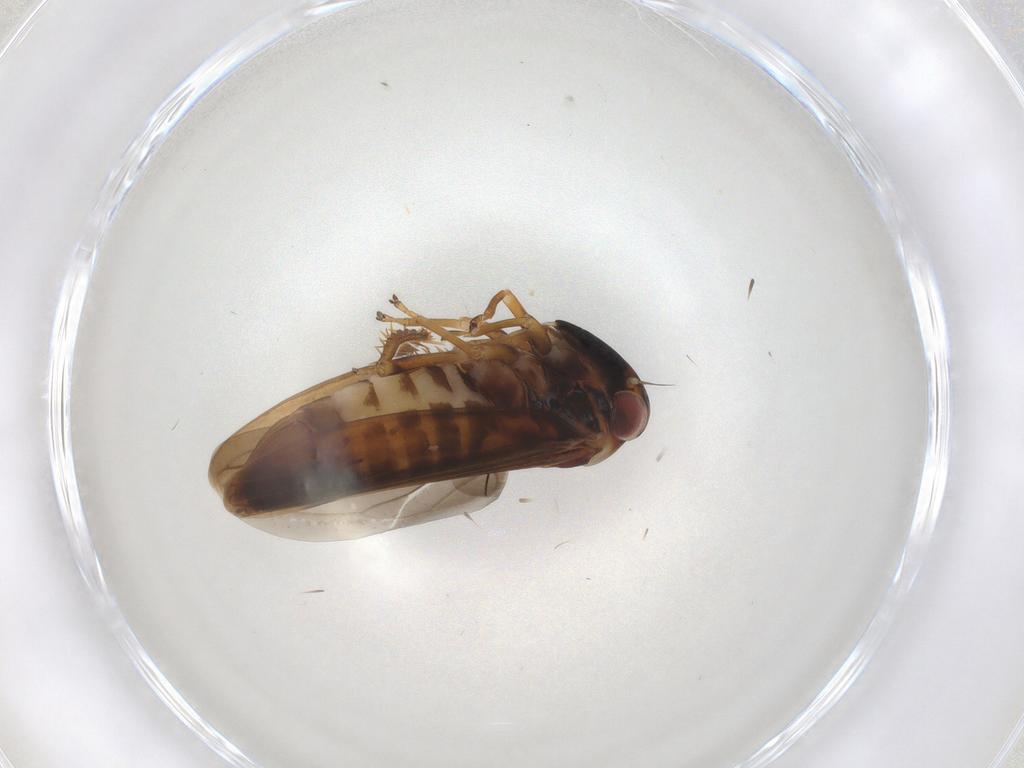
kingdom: Animalia
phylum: Arthropoda
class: Insecta
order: Hemiptera
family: Cicadellidae
